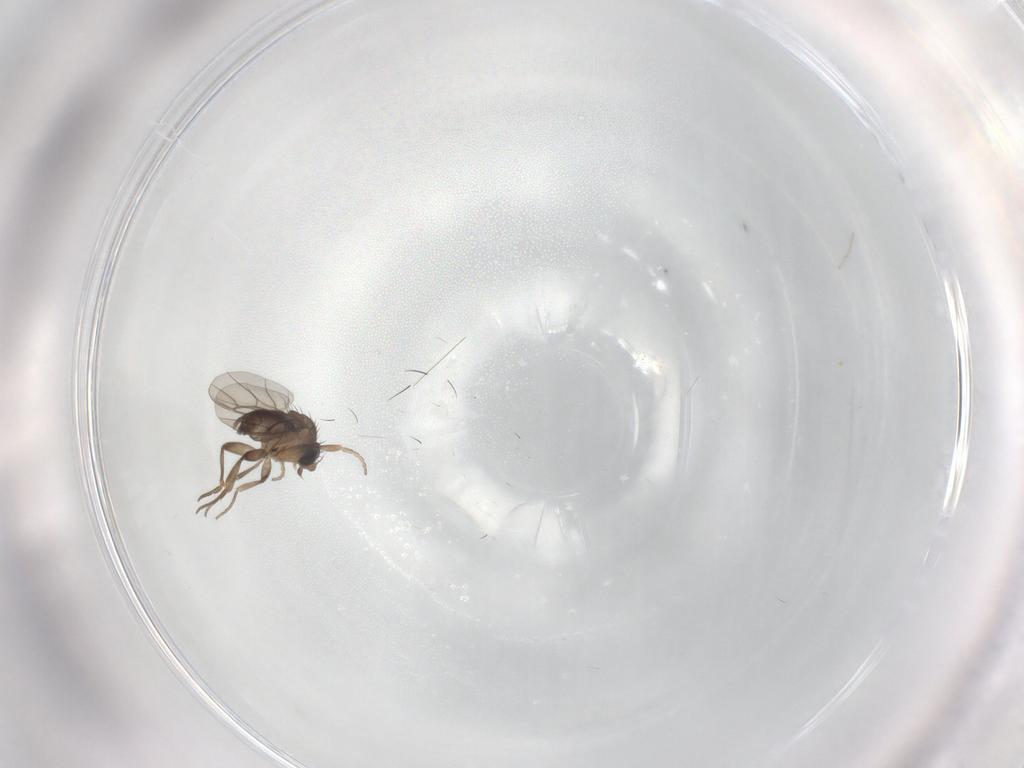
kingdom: Animalia
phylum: Arthropoda
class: Insecta
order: Diptera
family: Phoridae
